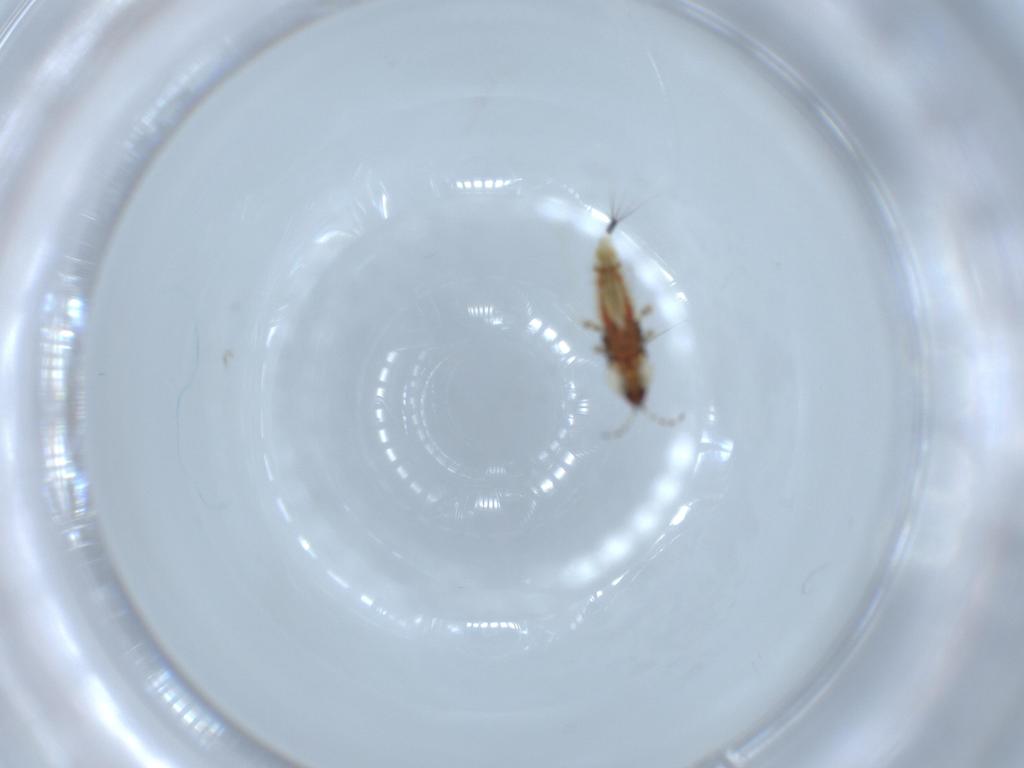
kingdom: Animalia
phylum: Arthropoda
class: Insecta
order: Thysanoptera
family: Phlaeothripidae
